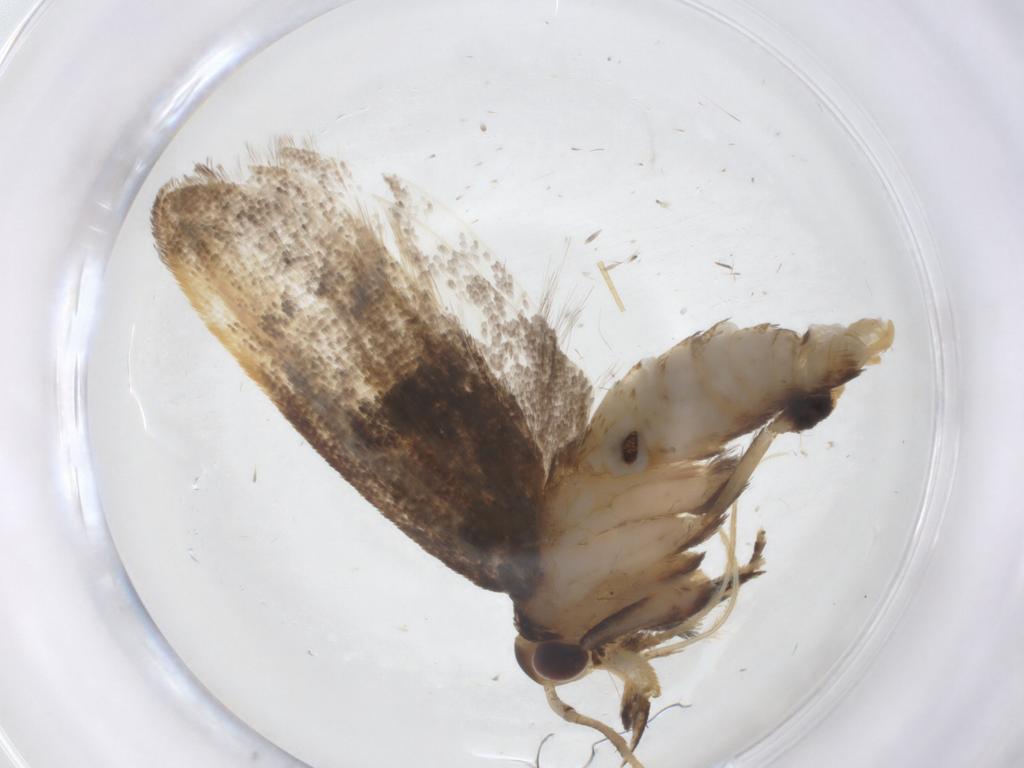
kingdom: Animalia
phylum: Arthropoda
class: Insecta
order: Lepidoptera
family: Lecithoceridae
